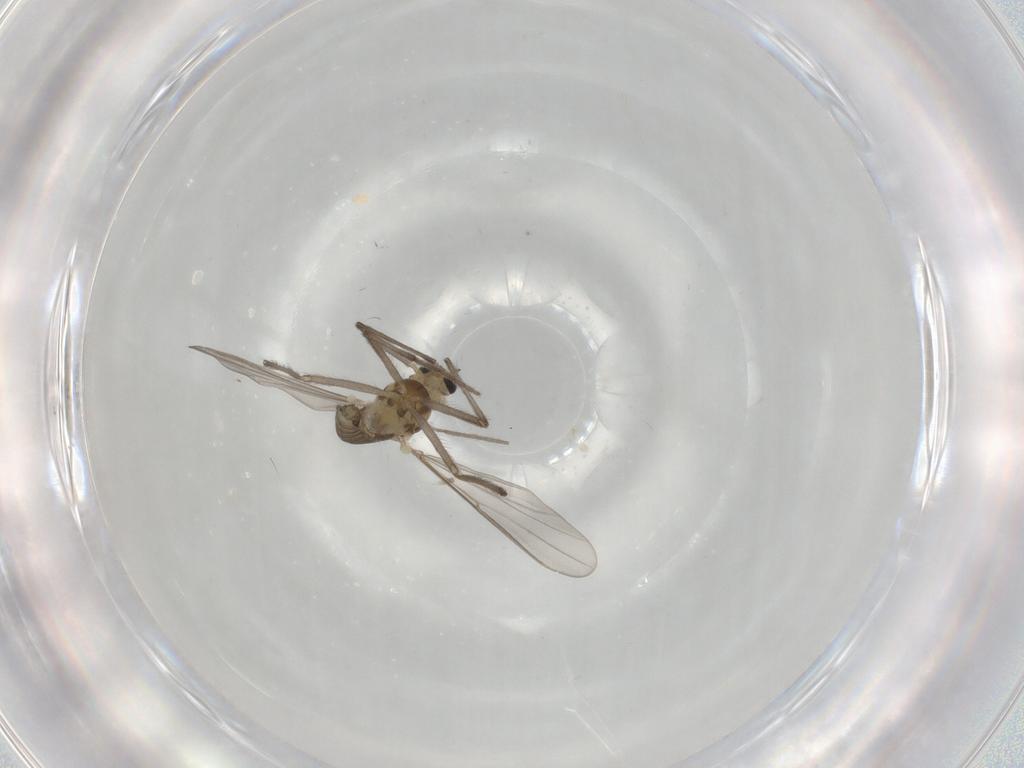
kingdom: Animalia
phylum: Arthropoda
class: Insecta
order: Diptera
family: Chironomidae
